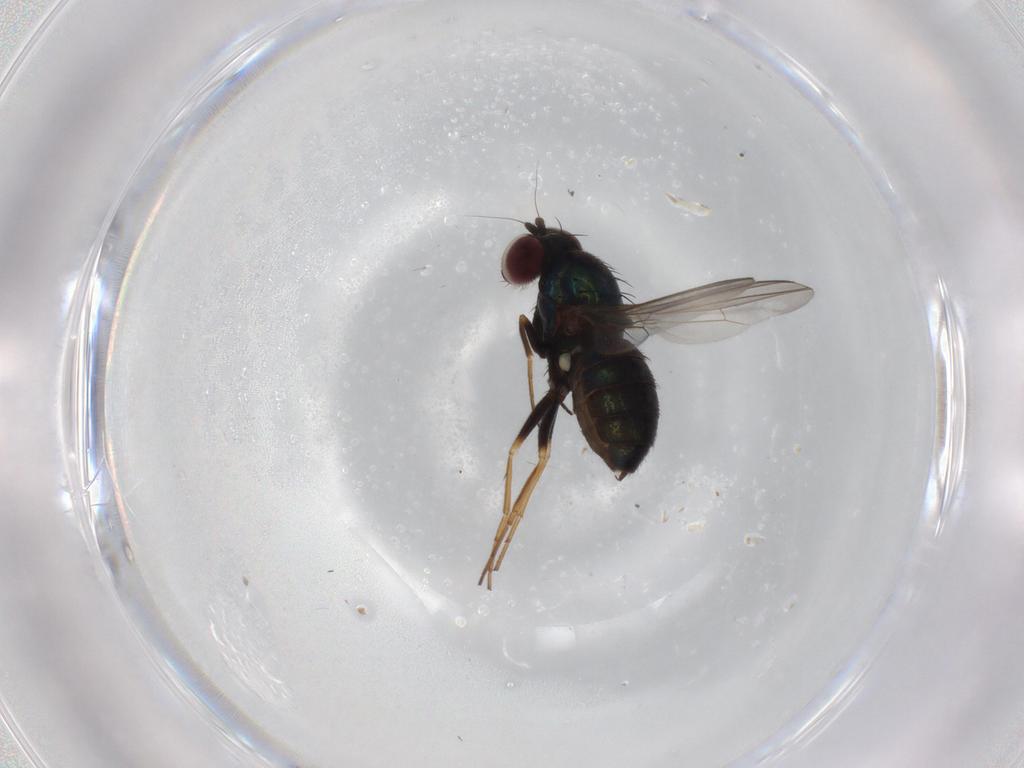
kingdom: Animalia
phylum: Arthropoda
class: Insecta
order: Diptera
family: Dolichopodidae
